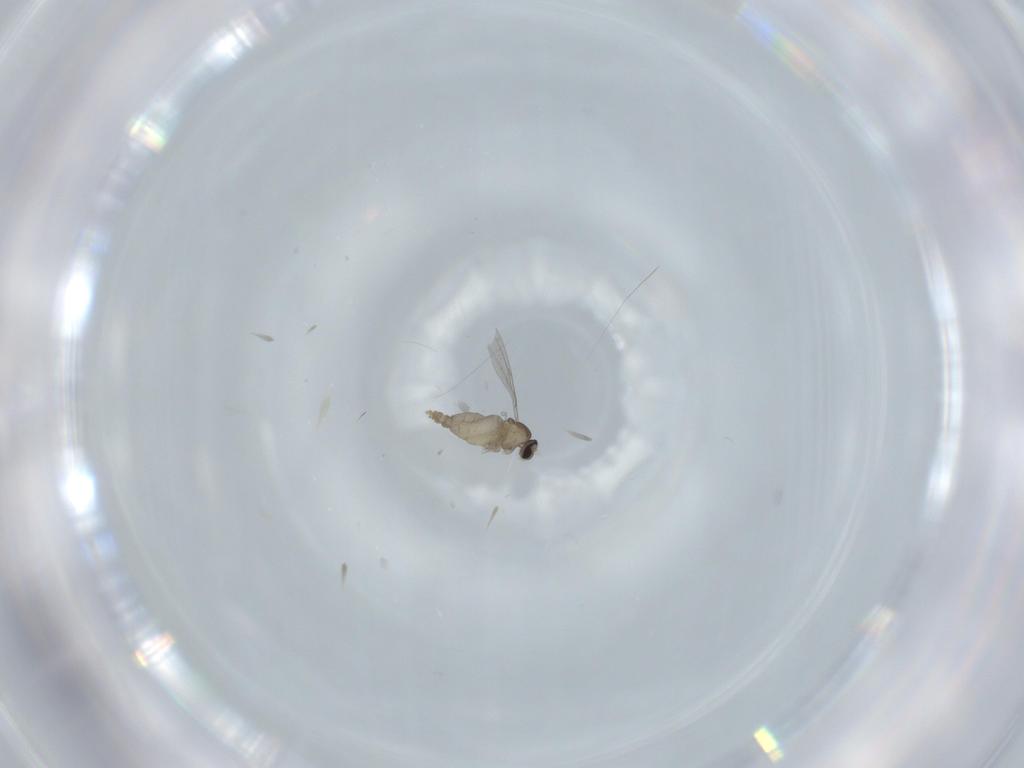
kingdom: Animalia
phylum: Arthropoda
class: Insecta
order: Diptera
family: Cecidomyiidae
